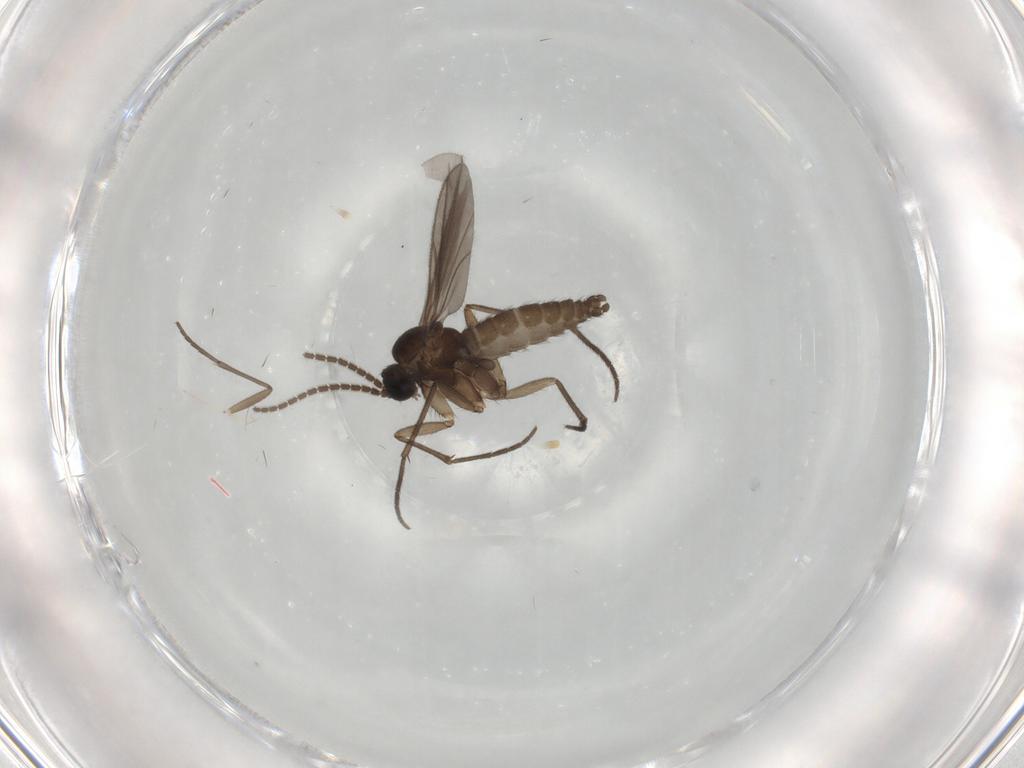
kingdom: Animalia
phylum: Arthropoda
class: Insecta
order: Diptera
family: Sciaridae
